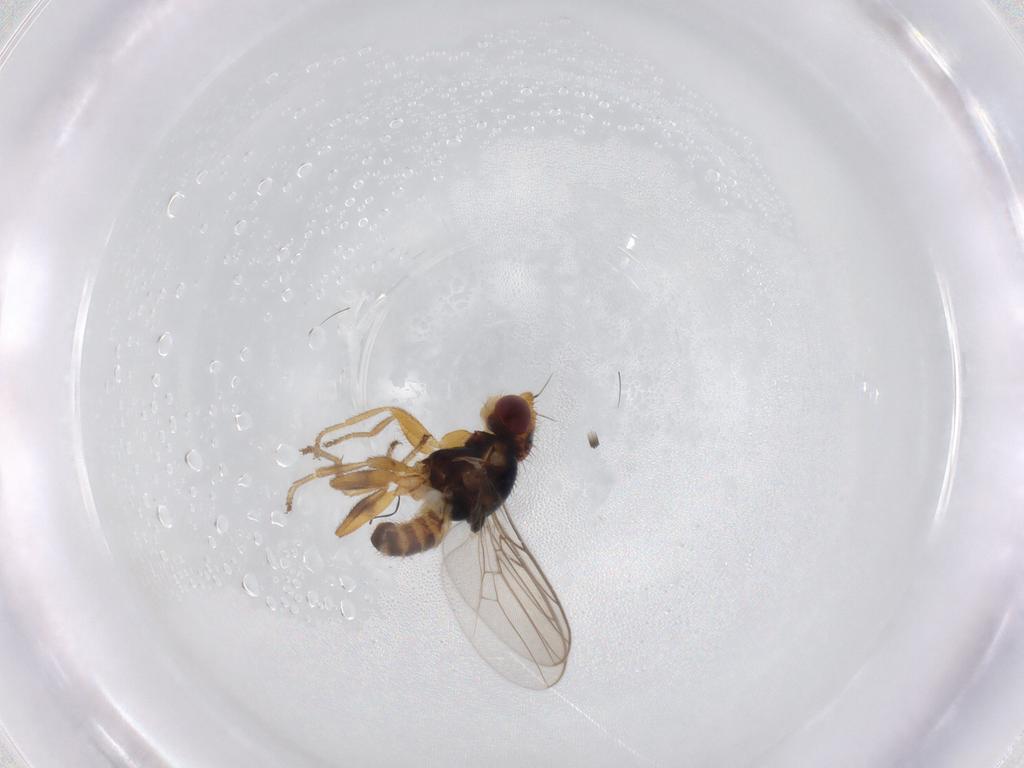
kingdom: Animalia
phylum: Arthropoda
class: Insecta
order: Diptera
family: Chloropidae
